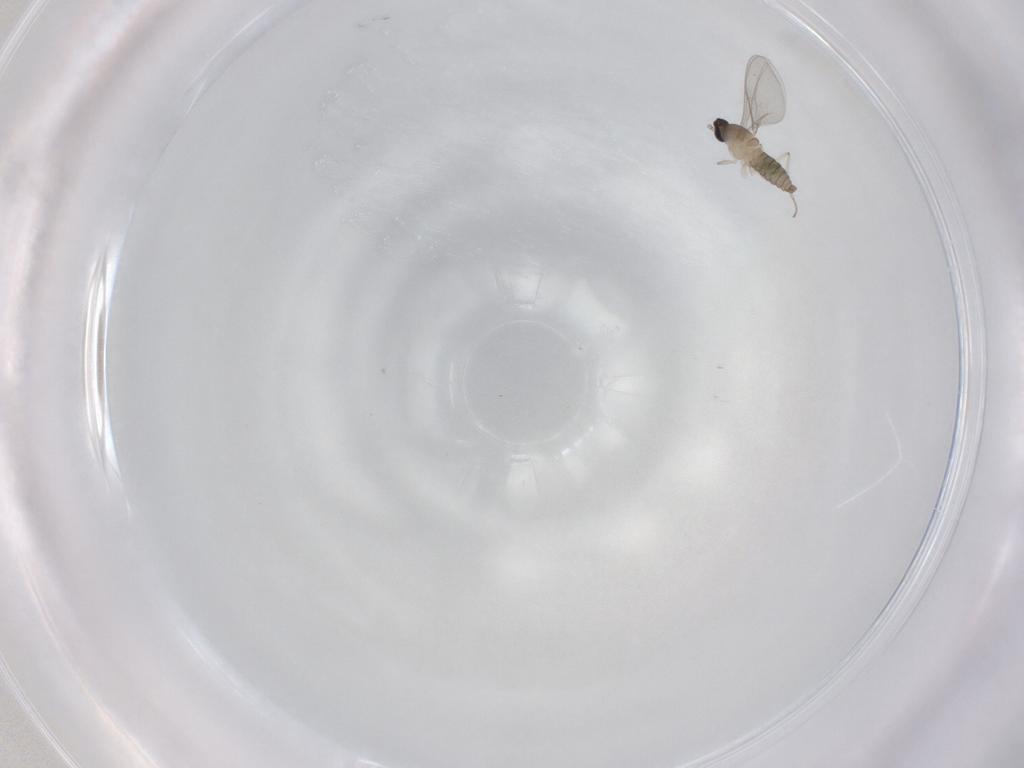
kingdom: Animalia
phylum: Arthropoda
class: Insecta
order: Diptera
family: Cecidomyiidae
